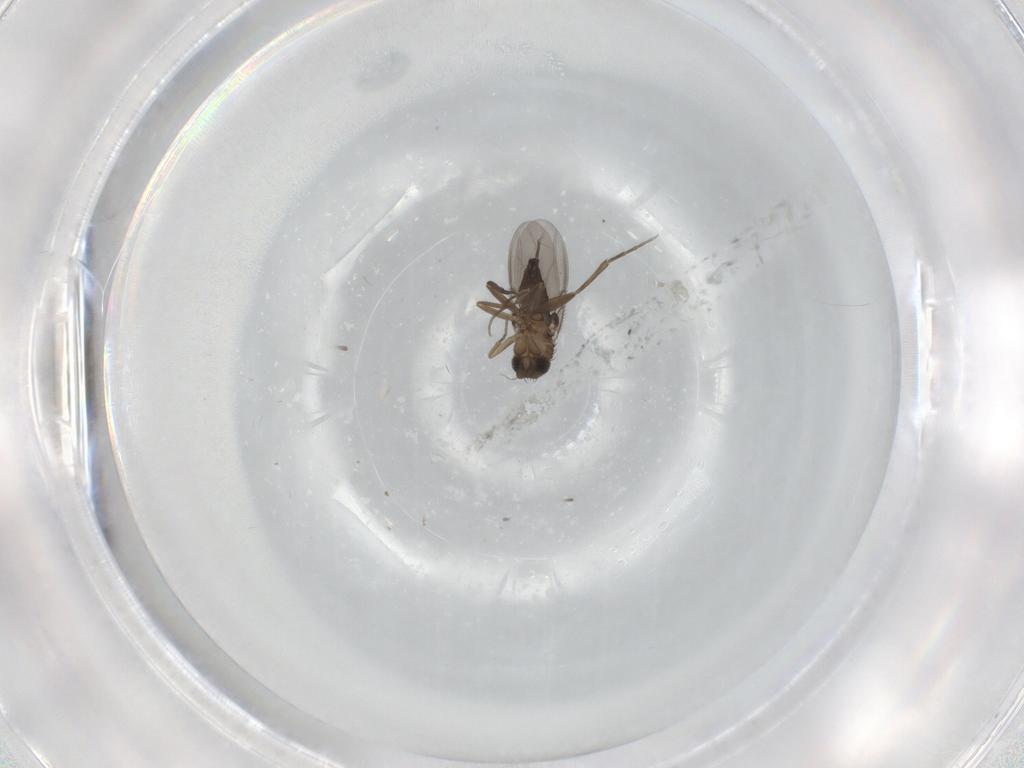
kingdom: Animalia
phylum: Arthropoda
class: Insecta
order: Diptera
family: Phoridae
